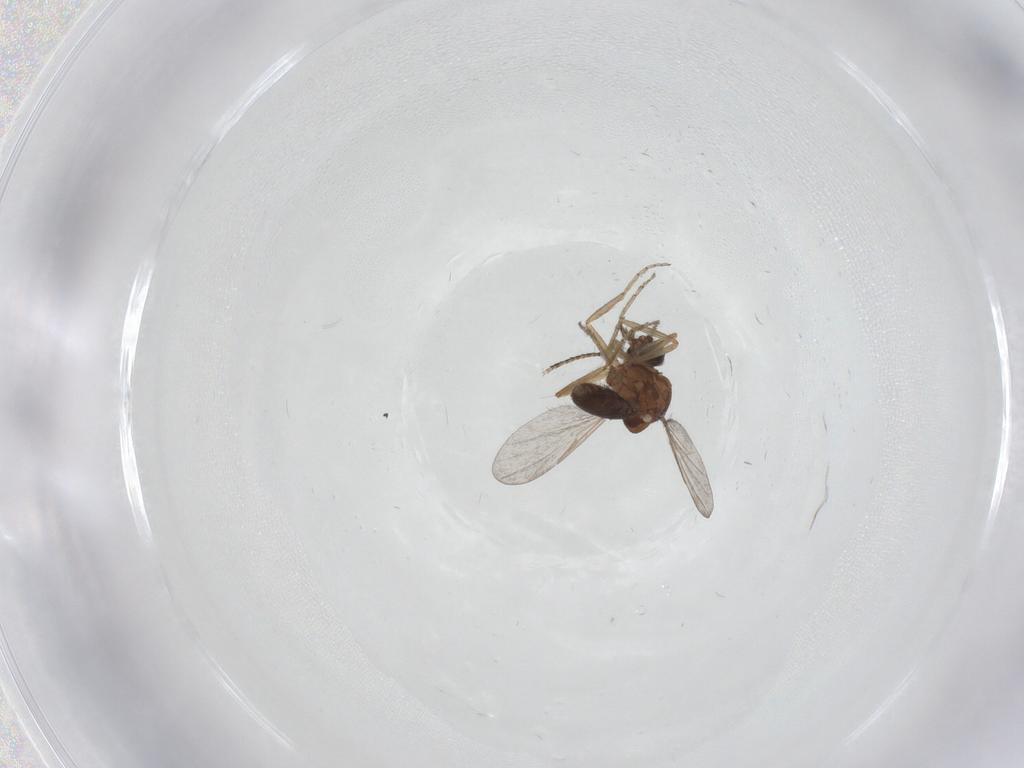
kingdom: Animalia
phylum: Arthropoda
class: Insecta
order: Diptera
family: Ceratopogonidae
